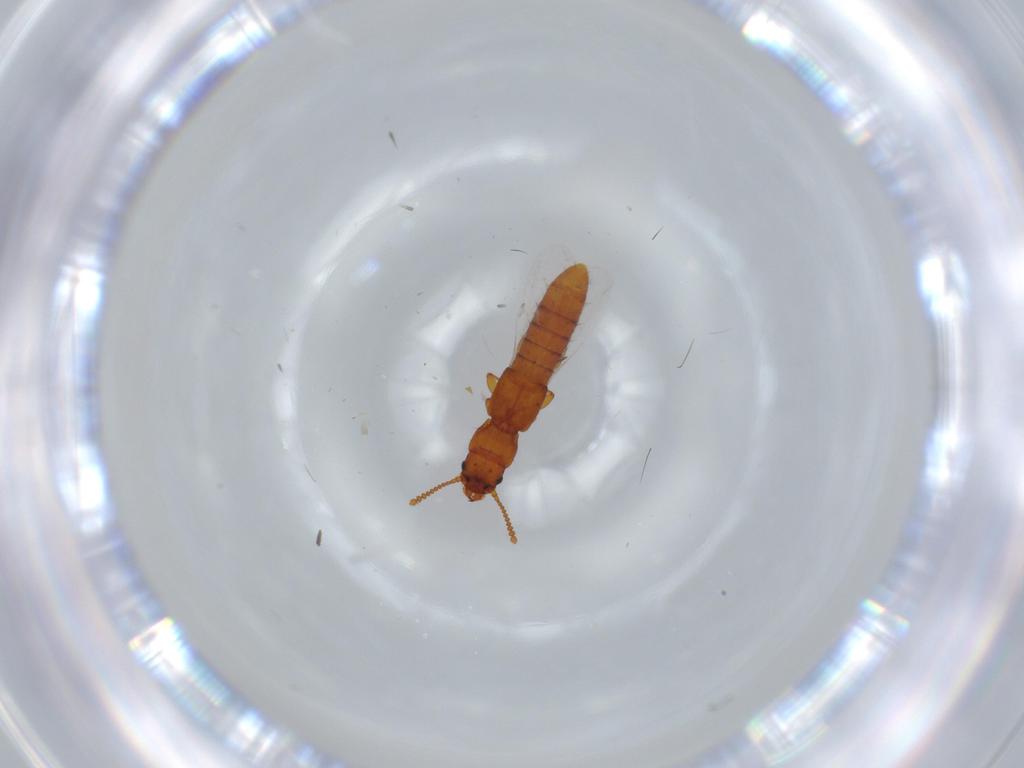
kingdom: Animalia
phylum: Arthropoda
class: Insecta
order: Coleoptera
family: Staphylinidae
